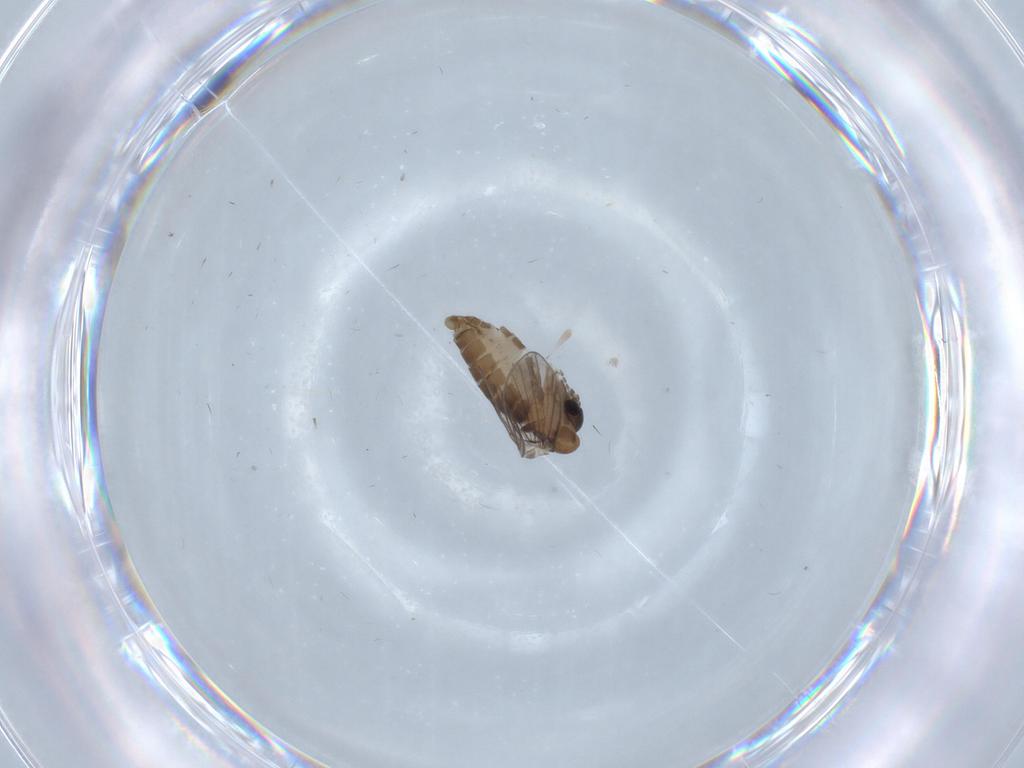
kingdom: Animalia
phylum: Arthropoda
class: Insecta
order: Diptera
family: Psychodidae
